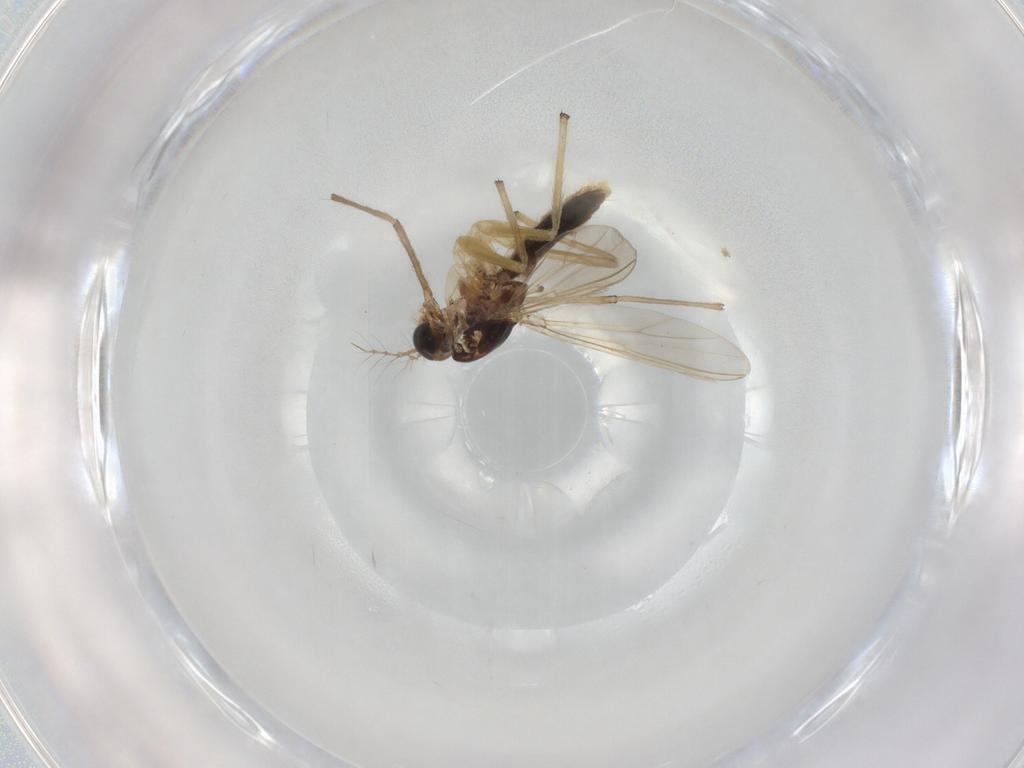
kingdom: Animalia
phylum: Arthropoda
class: Insecta
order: Diptera
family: Chironomidae
